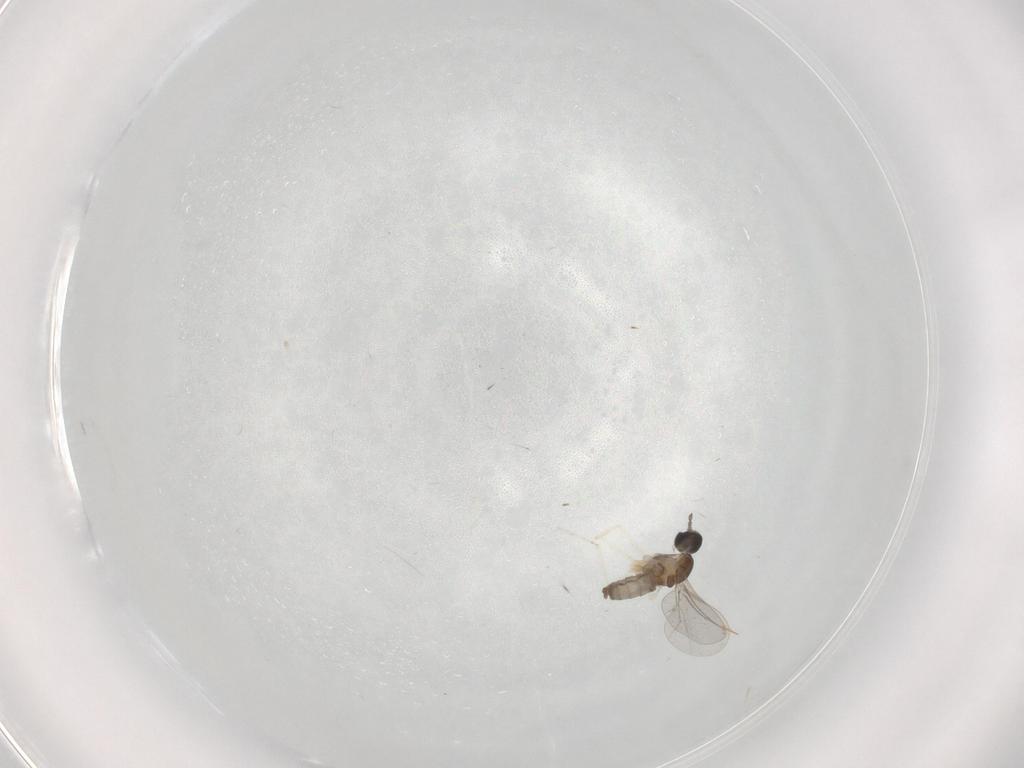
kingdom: Animalia
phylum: Arthropoda
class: Insecta
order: Diptera
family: Cecidomyiidae
